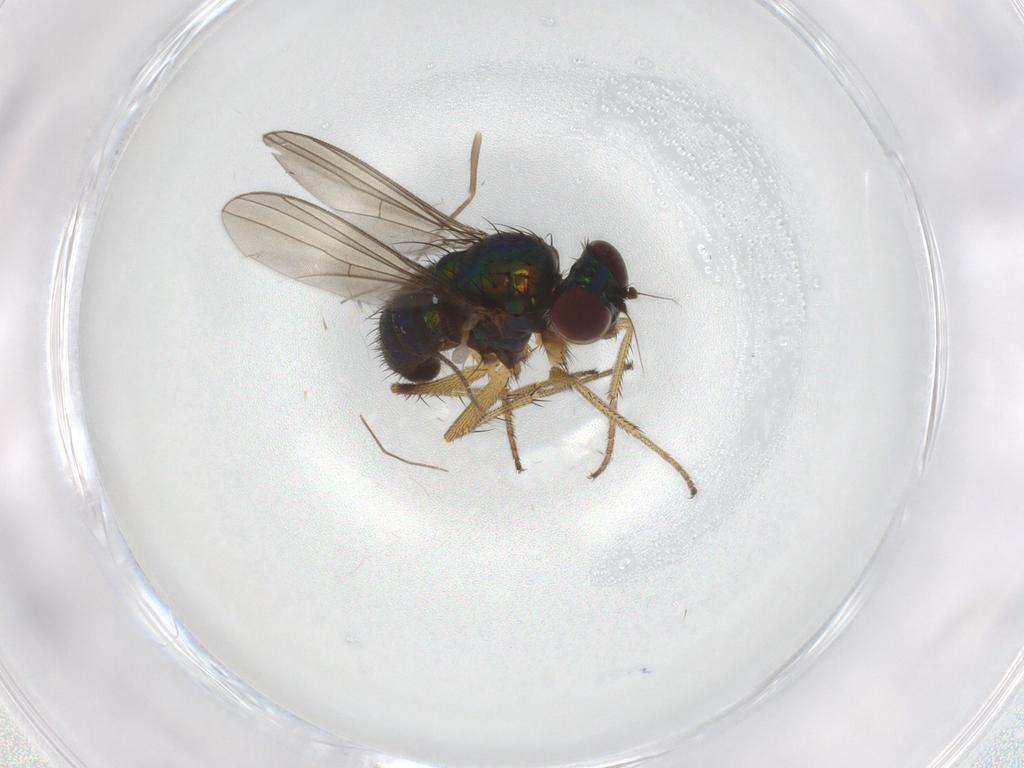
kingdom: Animalia
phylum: Arthropoda
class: Insecta
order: Diptera
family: Dolichopodidae
